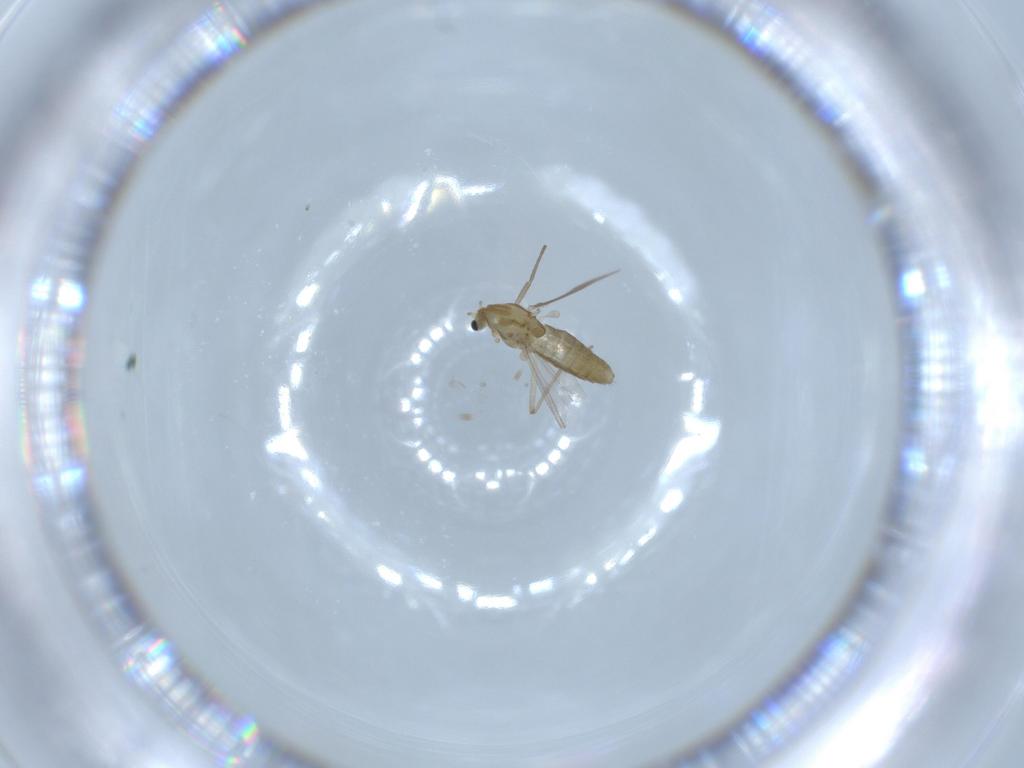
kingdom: Animalia
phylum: Arthropoda
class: Insecta
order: Diptera
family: Chironomidae
